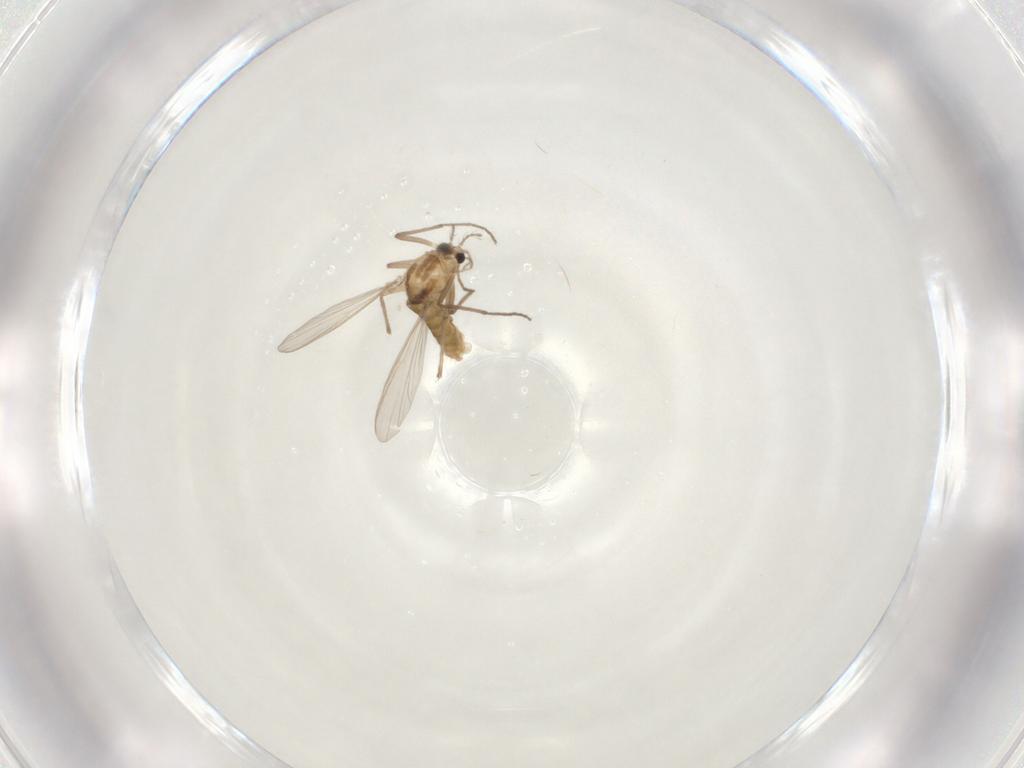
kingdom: Animalia
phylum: Arthropoda
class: Insecta
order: Diptera
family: Chironomidae
